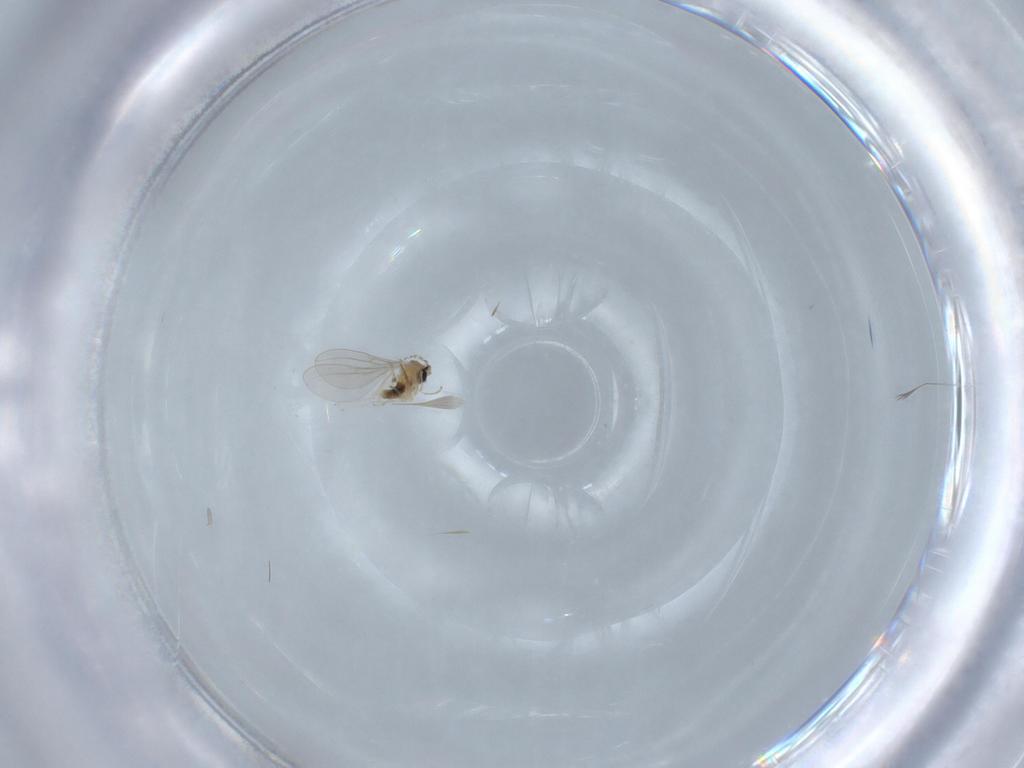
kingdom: Animalia
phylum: Arthropoda
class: Insecta
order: Diptera
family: Cecidomyiidae
